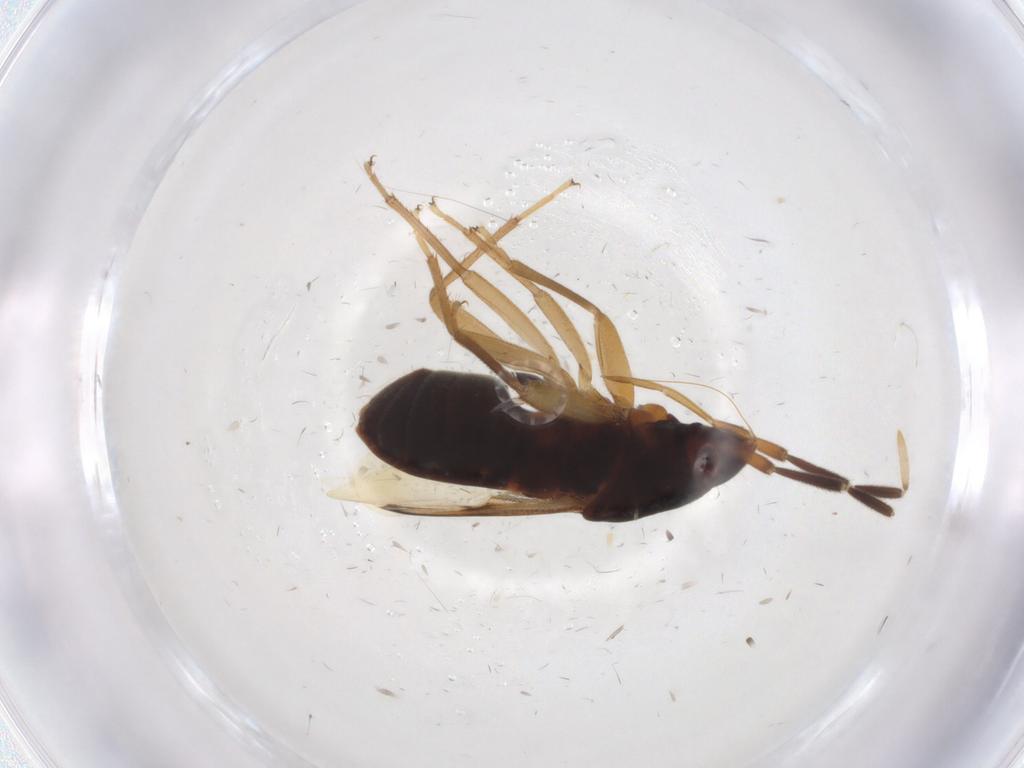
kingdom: Animalia
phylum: Arthropoda
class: Insecta
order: Hemiptera
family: Rhyparochromidae
